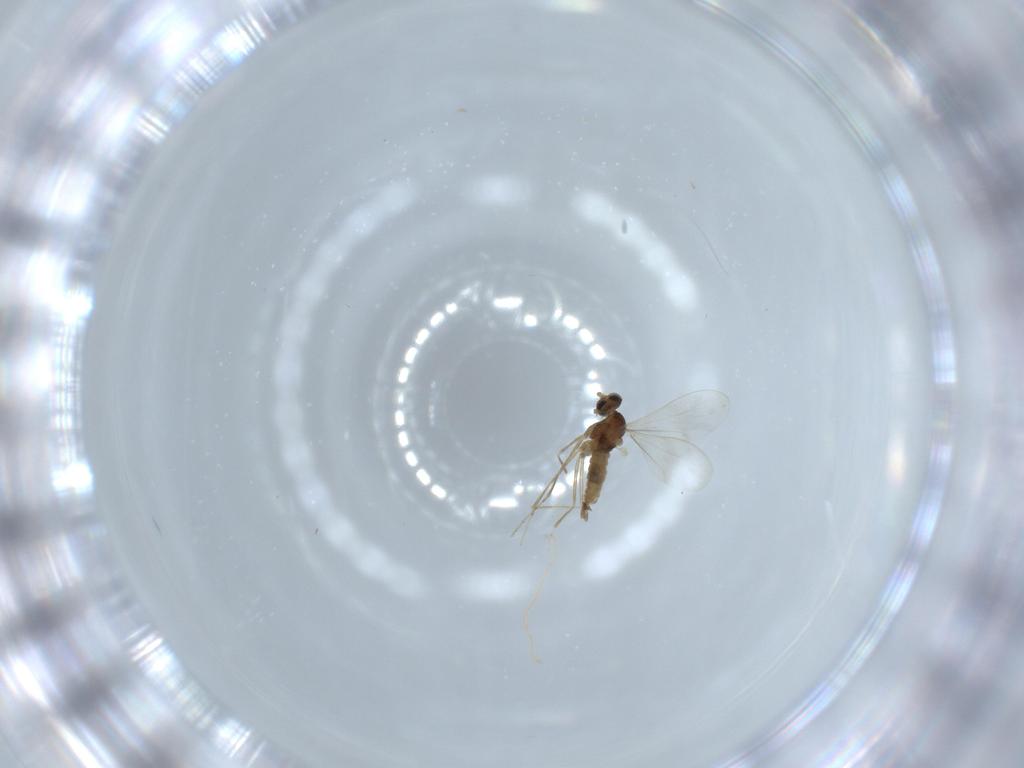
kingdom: Animalia
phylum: Arthropoda
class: Insecta
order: Diptera
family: Cecidomyiidae
